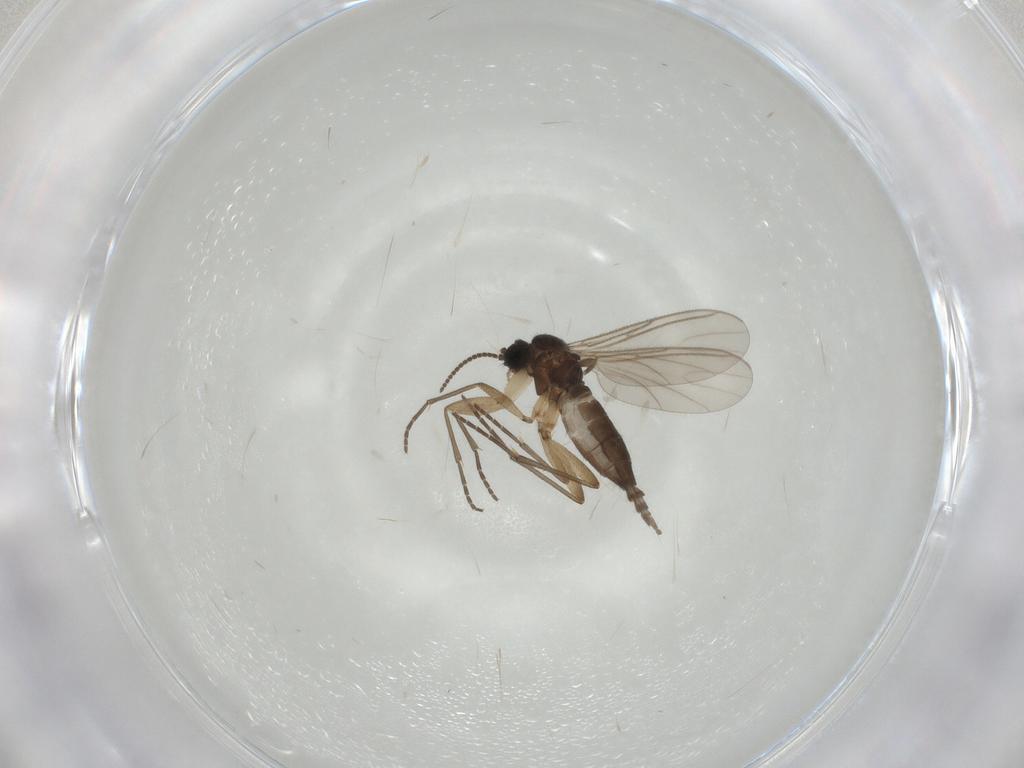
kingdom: Animalia
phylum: Arthropoda
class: Insecta
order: Diptera
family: Sciaridae
